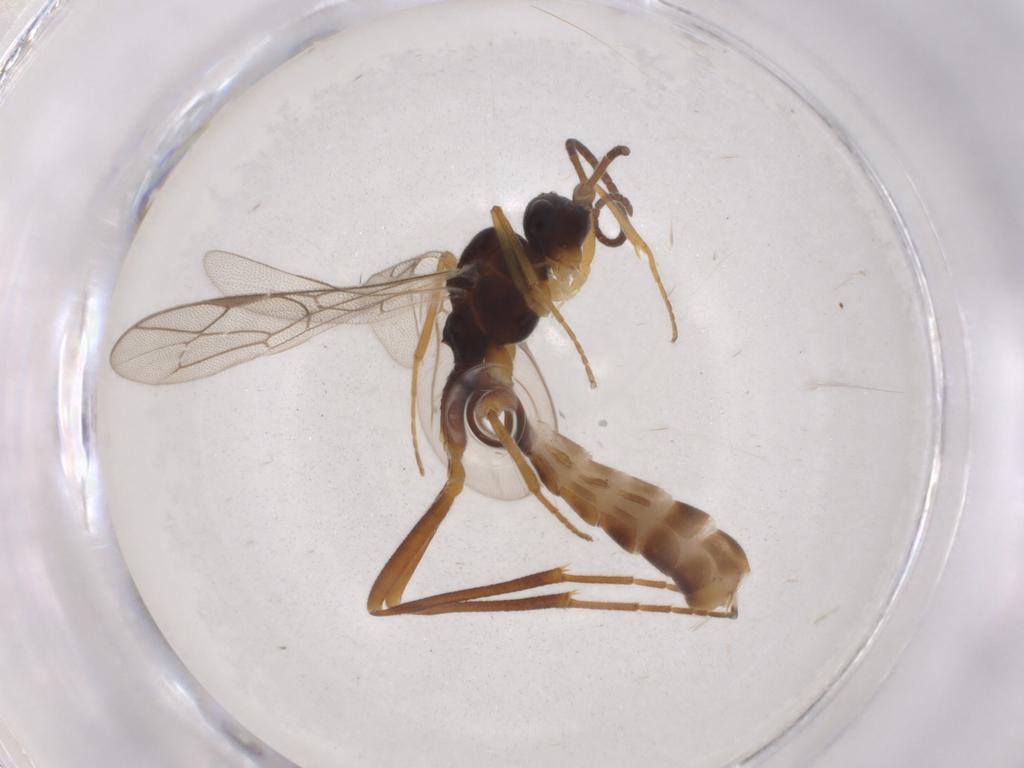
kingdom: Animalia
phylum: Arthropoda
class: Insecta
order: Hymenoptera
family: Ichneumonidae
